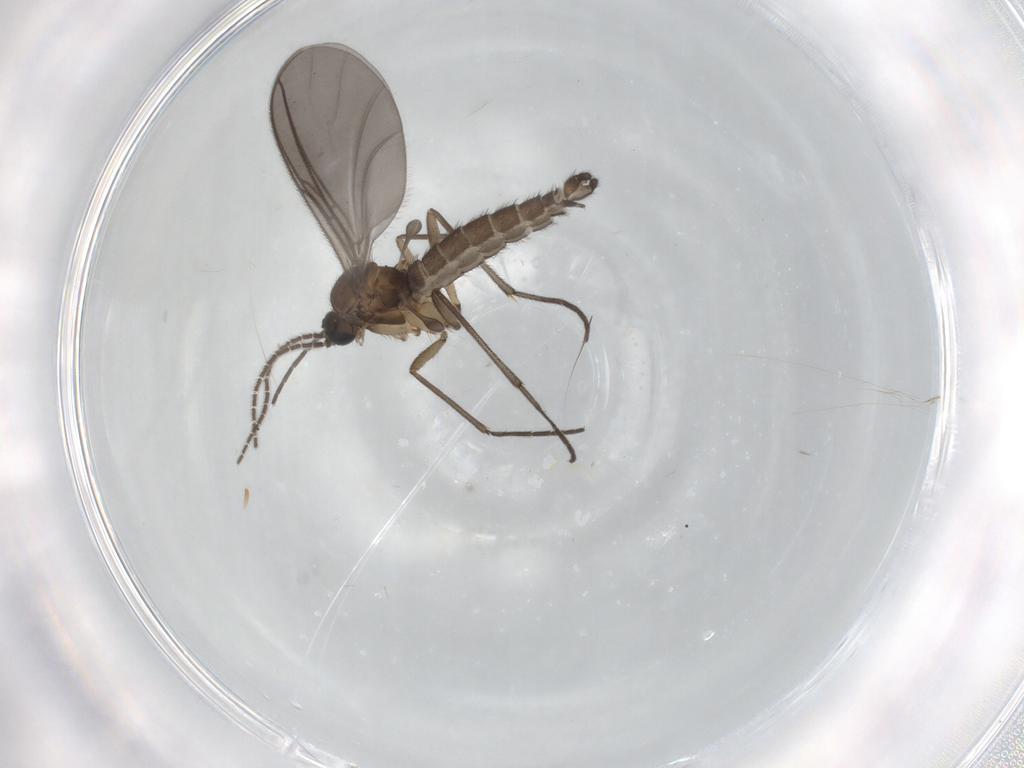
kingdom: Animalia
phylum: Arthropoda
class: Insecta
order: Diptera
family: Sciaridae
